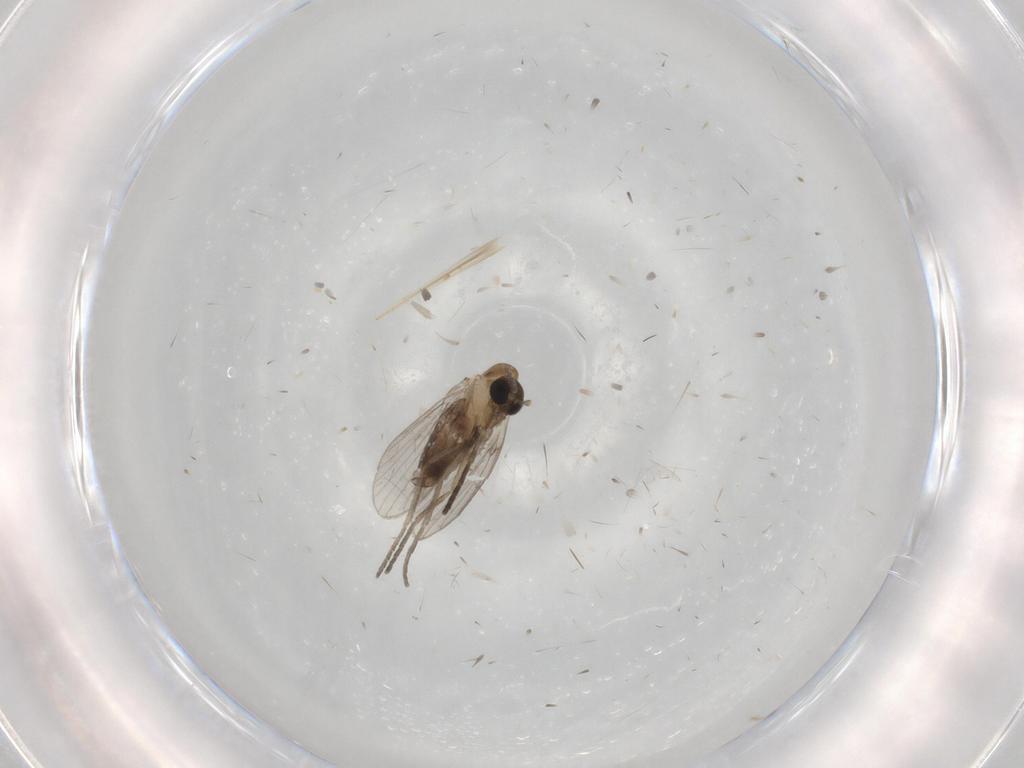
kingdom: Animalia
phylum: Arthropoda
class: Insecta
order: Diptera
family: Psychodidae
